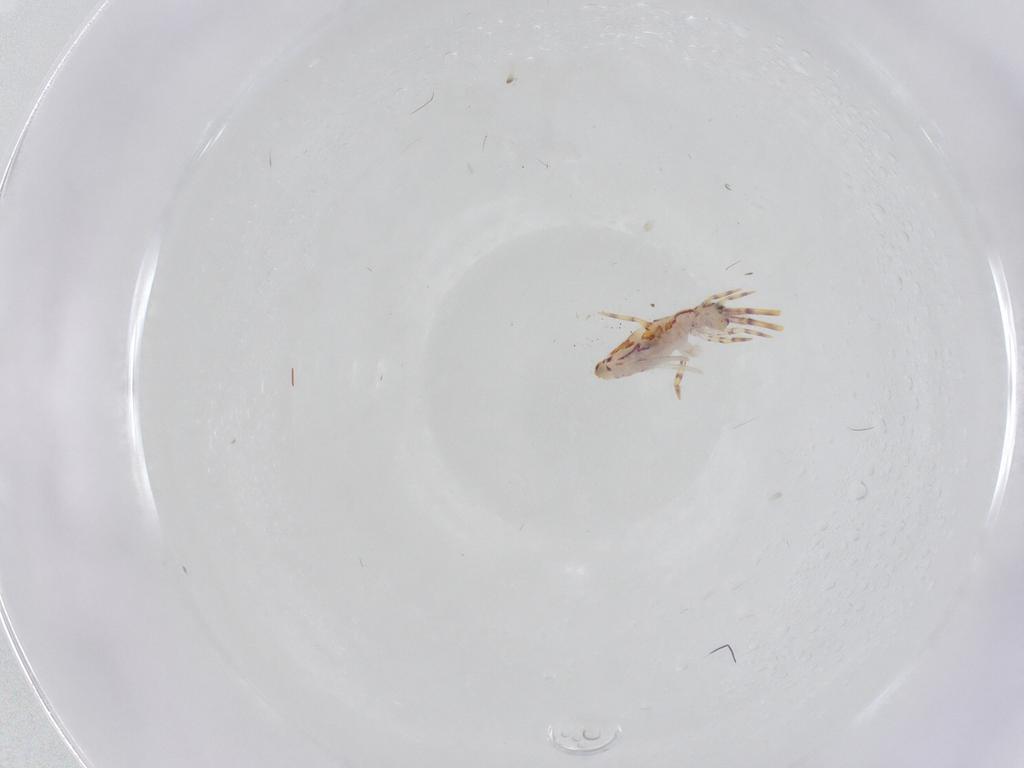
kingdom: Animalia
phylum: Arthropoda
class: Collembola
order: Entomobryomorpha
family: Entomobryidae
